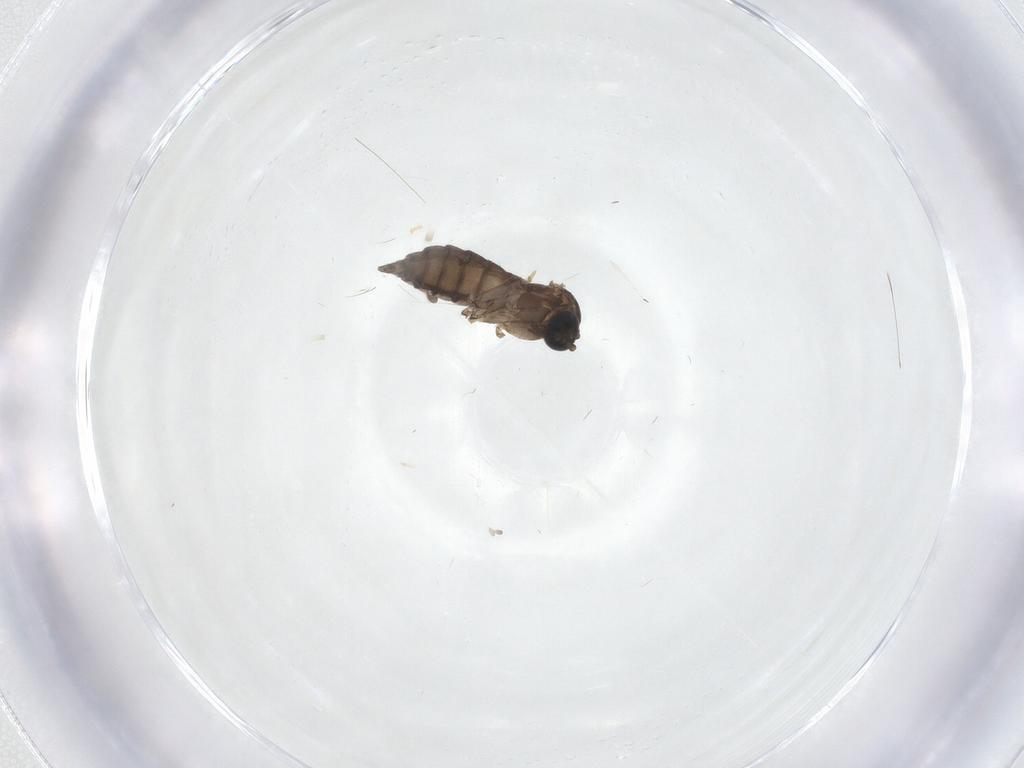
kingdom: Animalia
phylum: Arthropoda
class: Insecta
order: Diptera
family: Sciaridae
